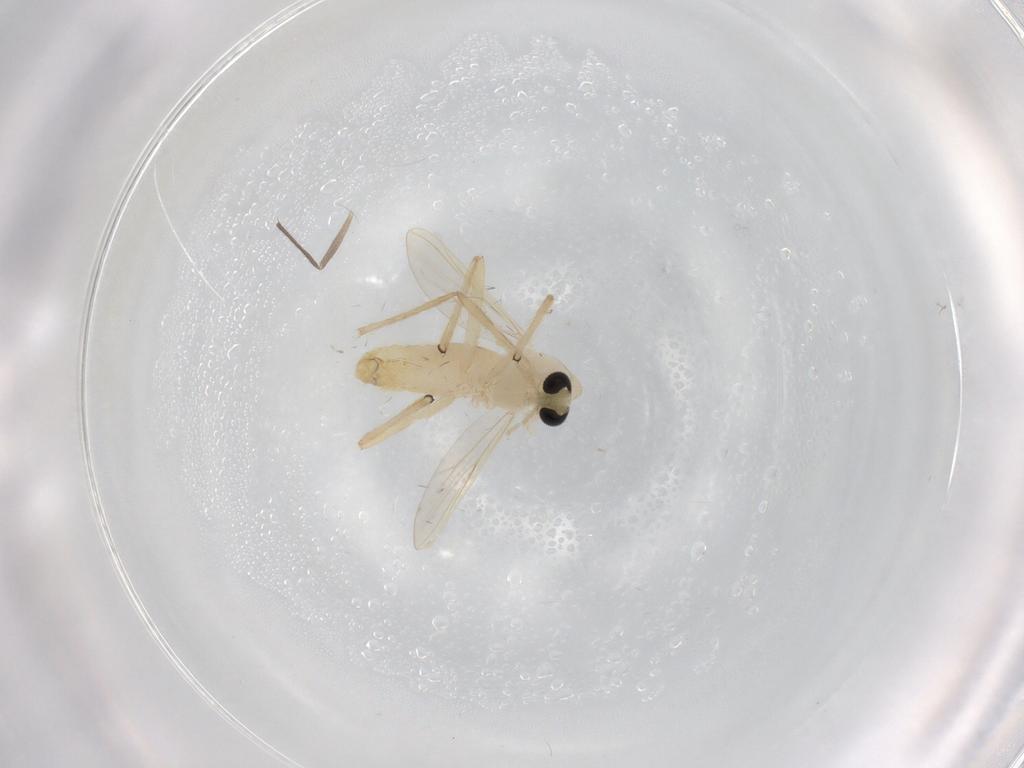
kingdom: Animalia
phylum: Arthropoda
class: Insecta
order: Diptera
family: Chironomidae
